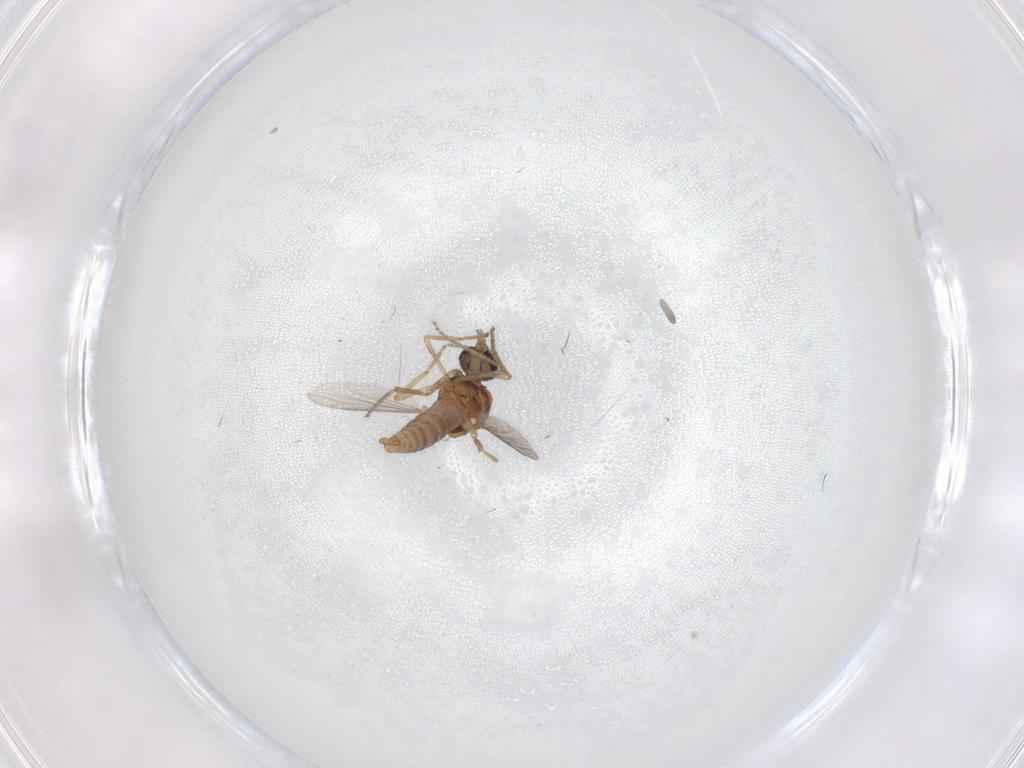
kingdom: Animalia
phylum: Arthropoda
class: Insecta
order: Diptera
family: Ceratopogonidae
